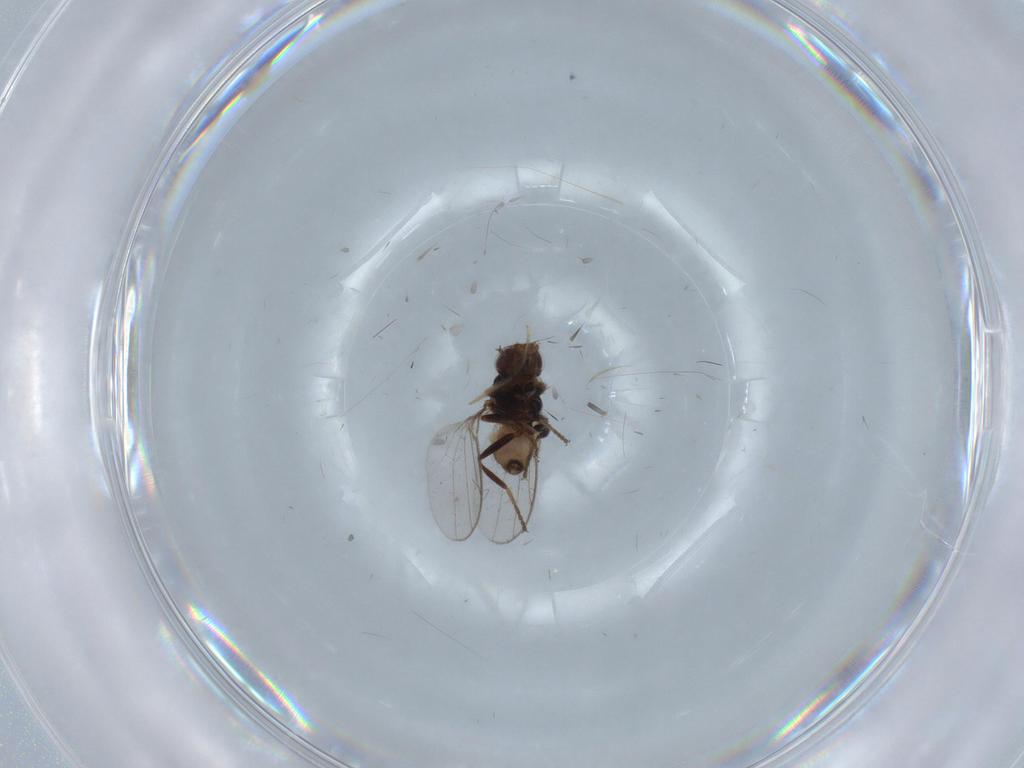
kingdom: Animalia
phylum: Arthropoda
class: Insecta
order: Diptera
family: Chloropidae
